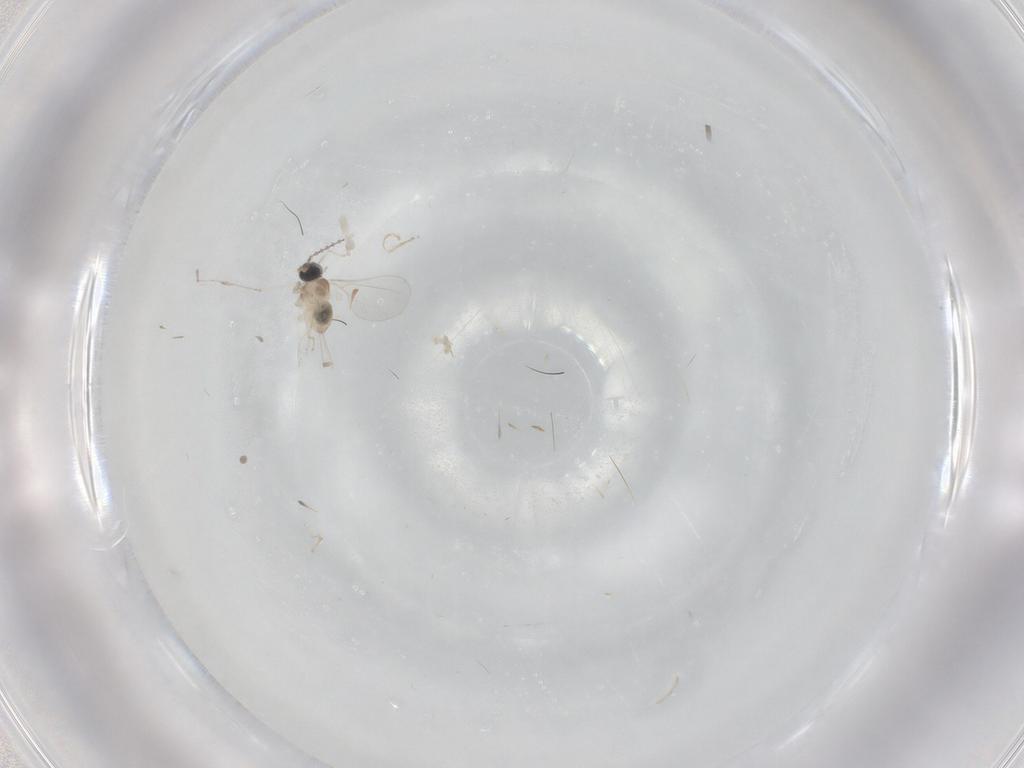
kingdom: Animalia
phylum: Arthropoda
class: Insecta
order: Diptera
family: Cecidomyiidae
